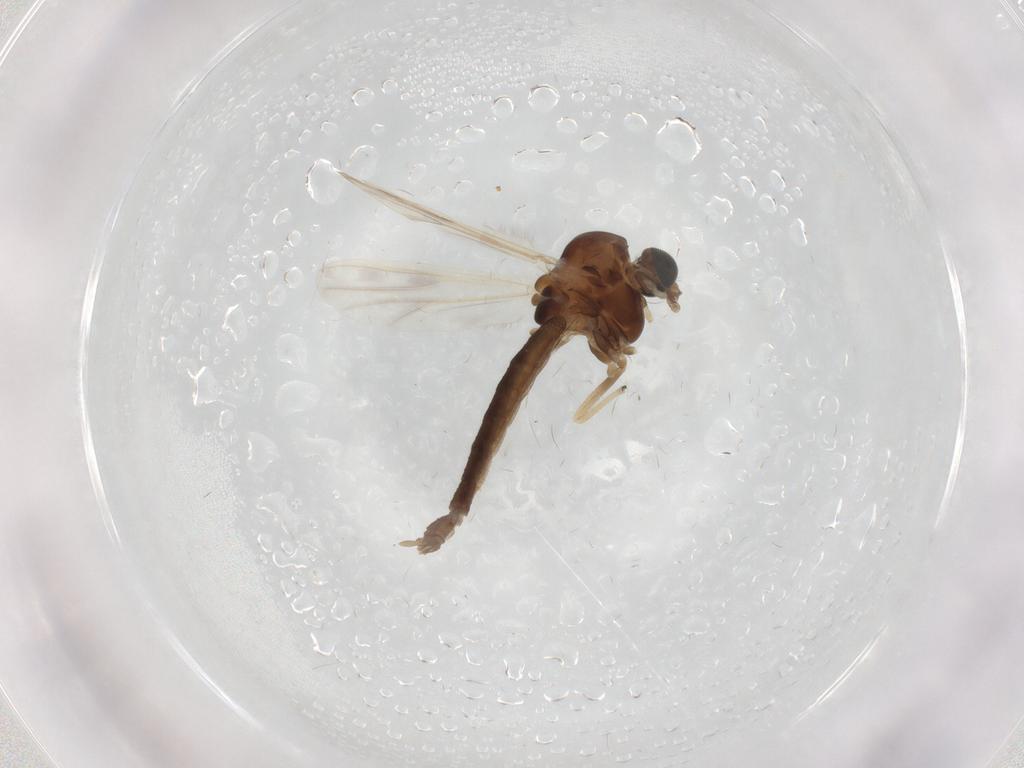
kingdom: Animalia
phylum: Arthropoda
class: Insecta
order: Diptera
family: Chironomidae
